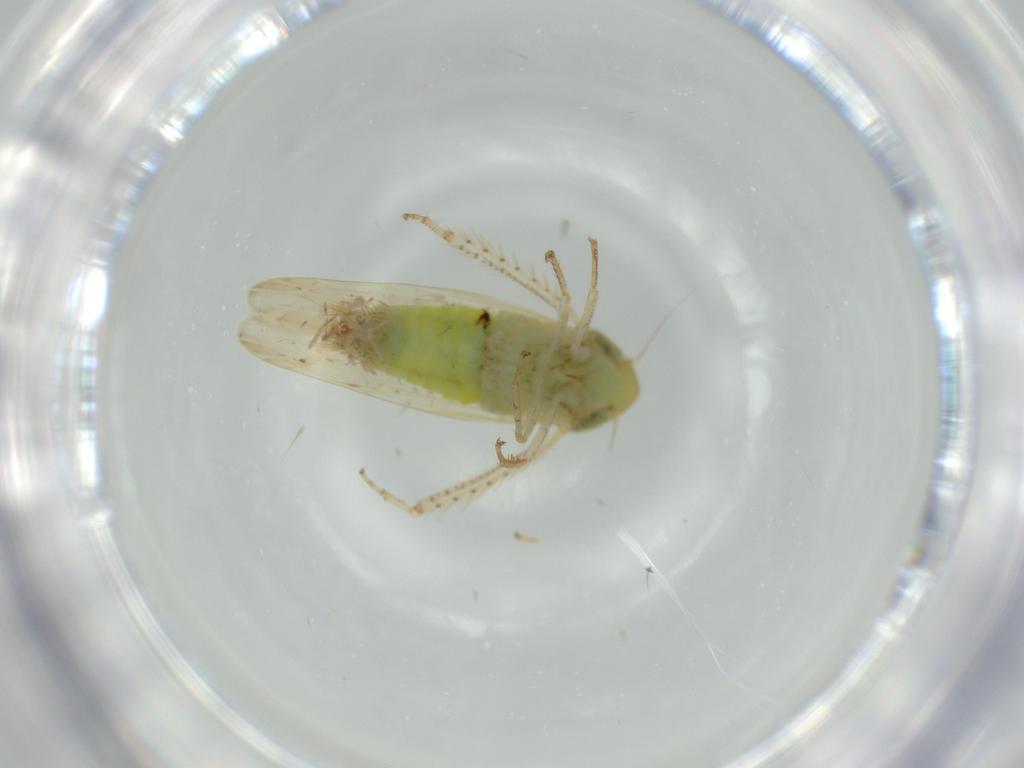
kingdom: Animalia
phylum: Arthropoda
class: Insecta
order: Hemiptera
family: Cicadellidae
